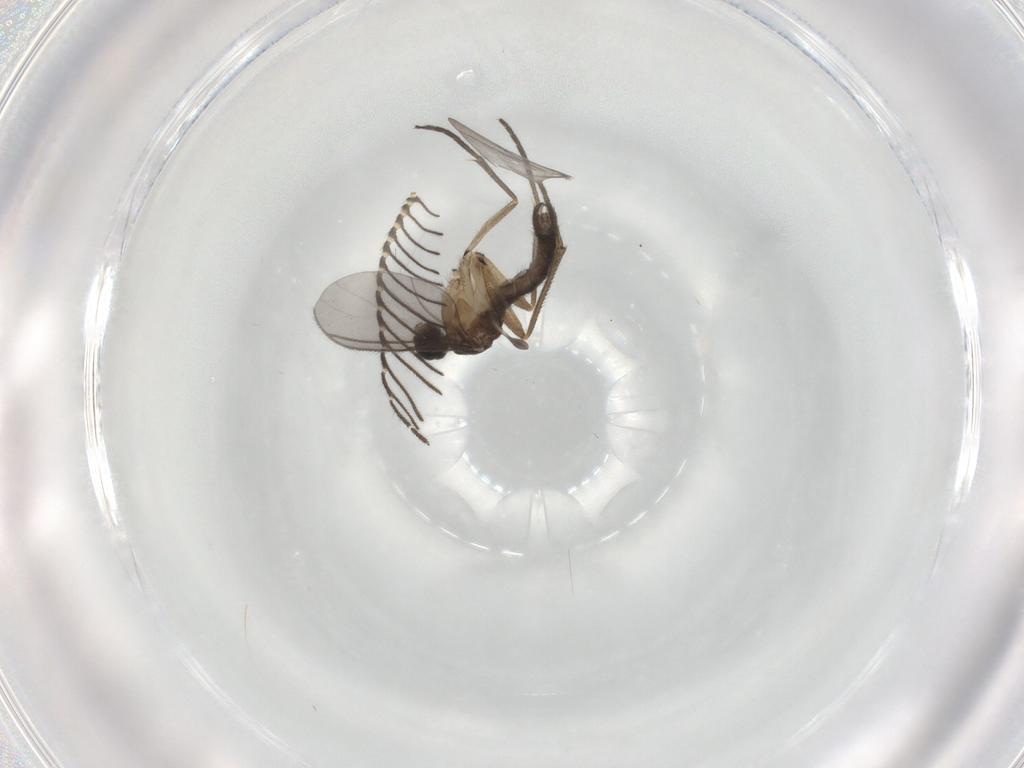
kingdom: Animalia
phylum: Arthropoda
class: Insecta
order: Diptera
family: Sciaridae
